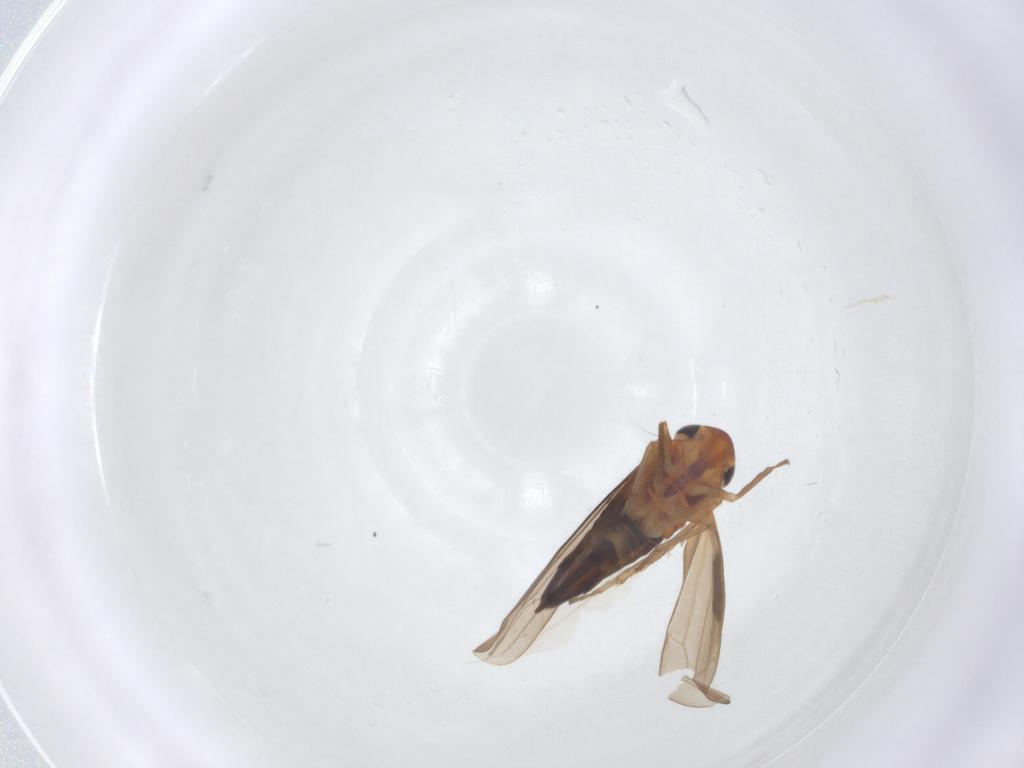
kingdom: Animalia
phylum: Arthropoda
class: Insecta
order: Hemiptera
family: Cicadellidae
